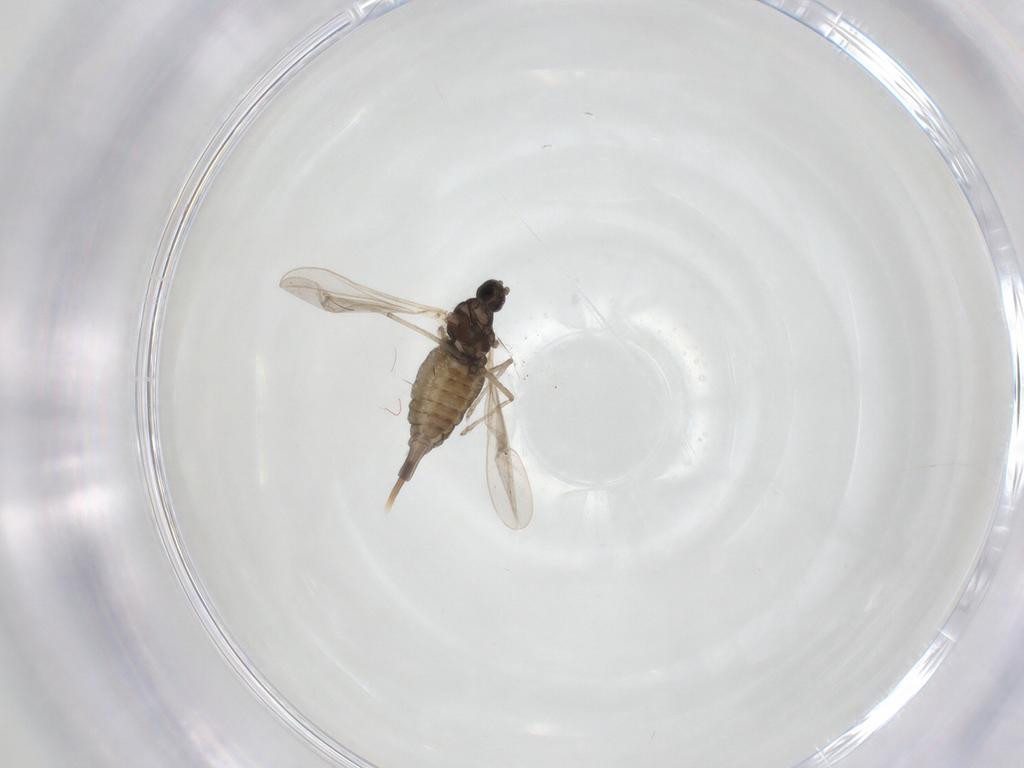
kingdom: Animalia
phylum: Arthropoda
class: Insecta
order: Diptera
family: Cecidomyiidae
